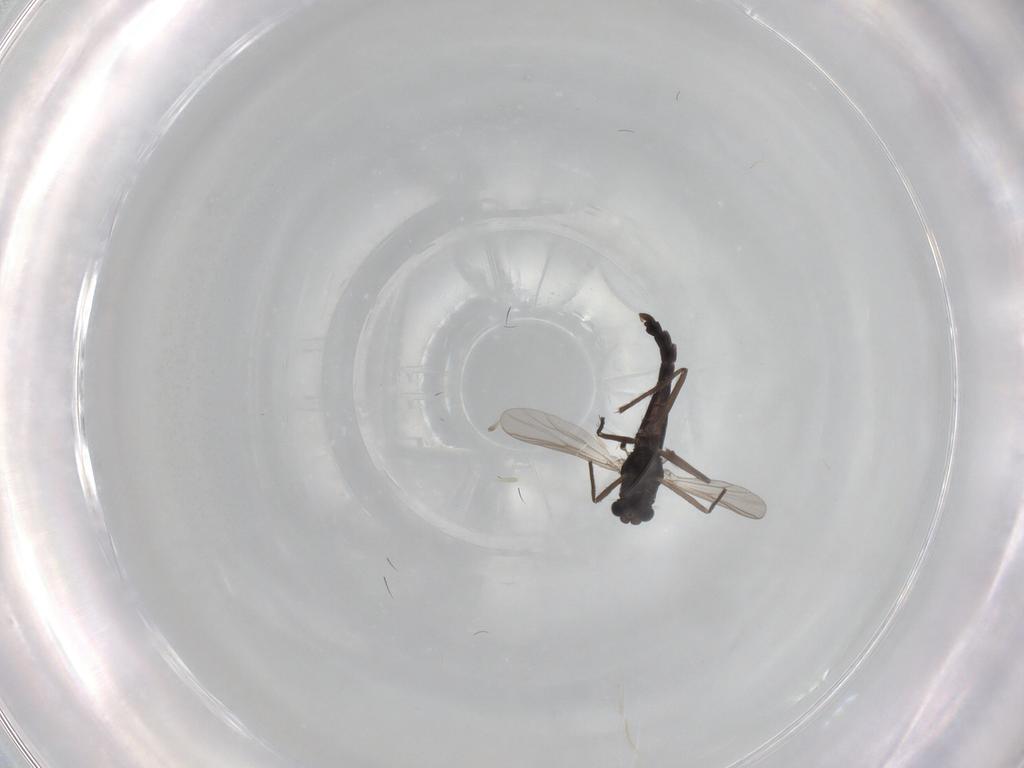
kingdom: Animalia
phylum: Arthropoda
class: Insecta
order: Diptera
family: Chironomidae
